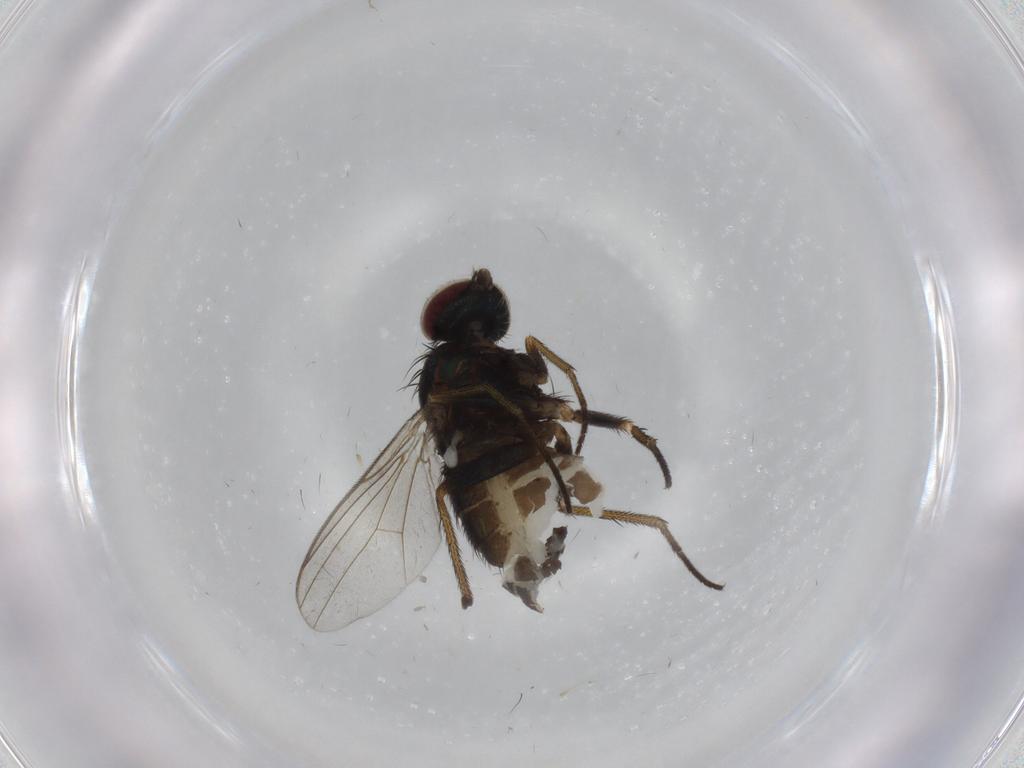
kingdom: Animalia
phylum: Arthropoda
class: Insecta
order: Diptera
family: Dolichopodidae
